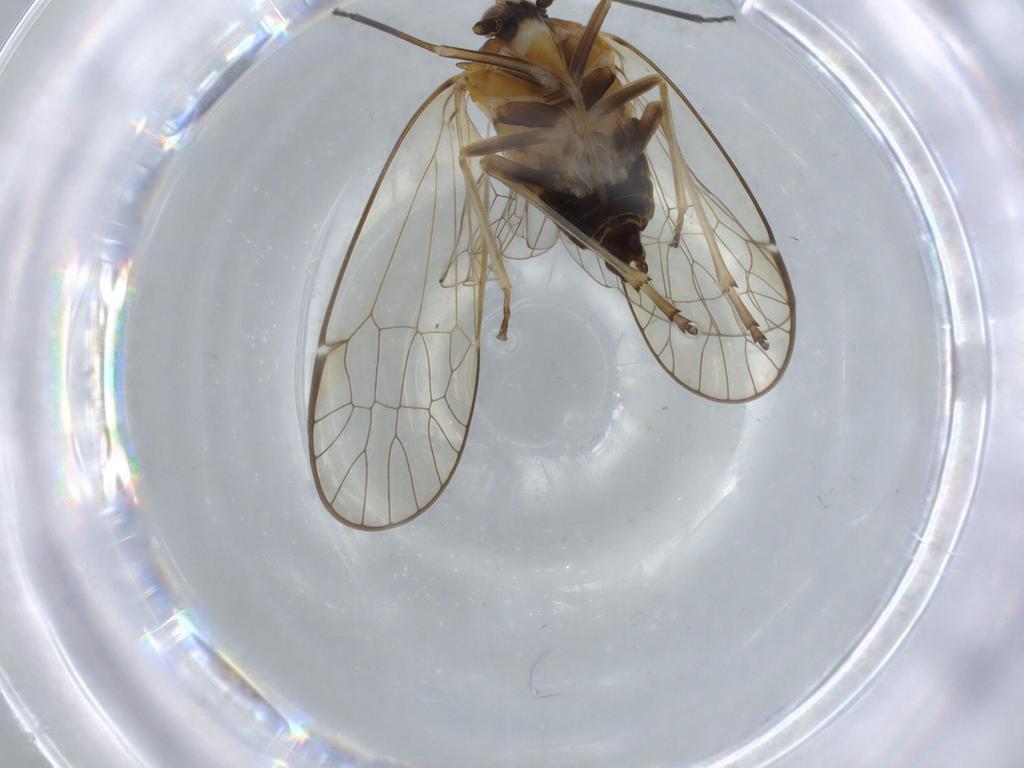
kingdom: Animalia
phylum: Arthropoda
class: Insecta
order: Hemiptera
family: Kinnaridae
